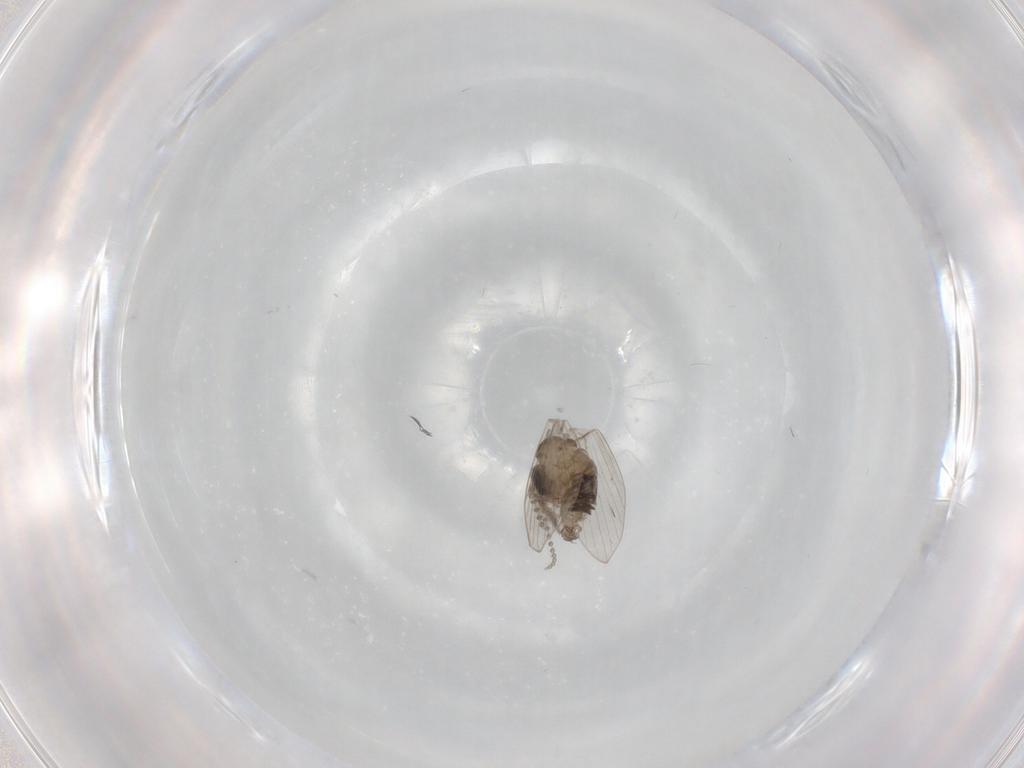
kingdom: Animalia
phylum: Arthropoda
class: Insecta
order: Diptera
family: Psychodidae
